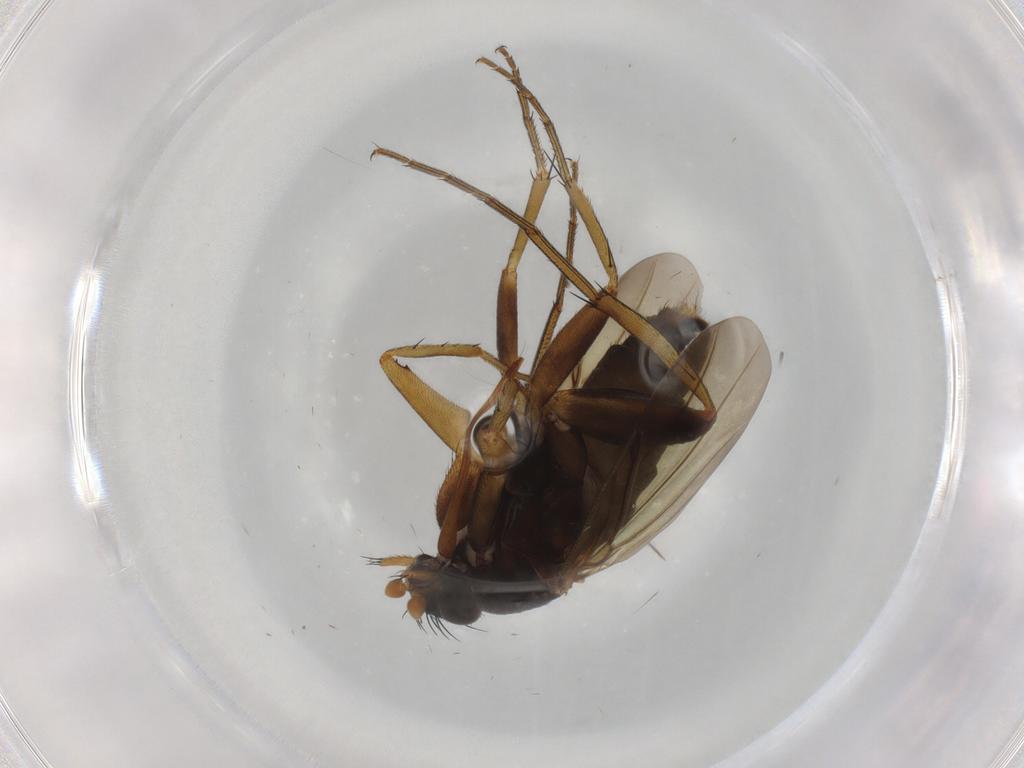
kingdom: Animalia
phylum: Arthropoda
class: Insecta
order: Diptera
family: Phoridae
